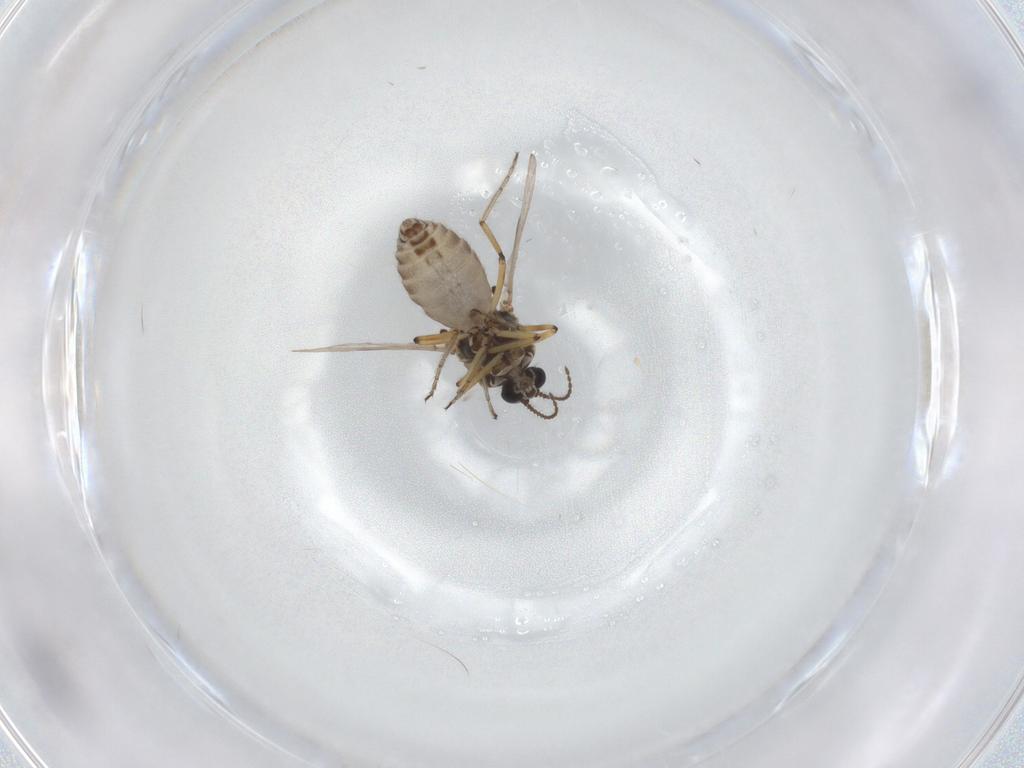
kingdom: Animalia
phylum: Arthropoda
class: Insecta
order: Diptera
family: Ceratopogonidae
